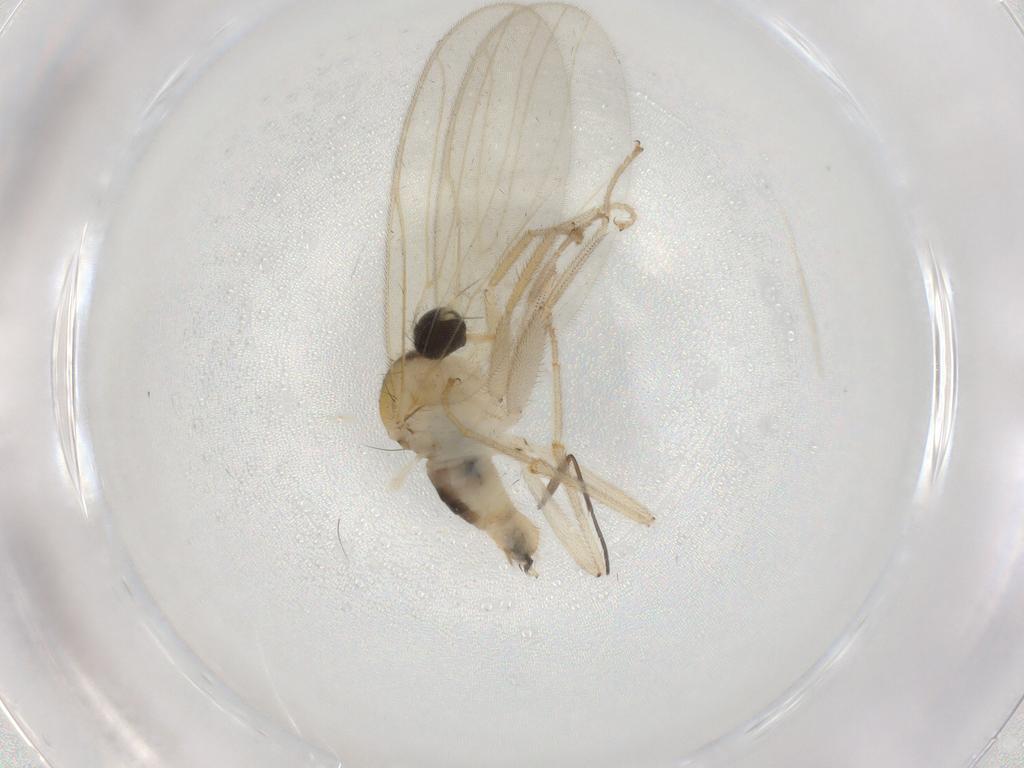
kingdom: Animalia
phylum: Arthropoda
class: Insecta
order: Diptera
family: Hybotidae
